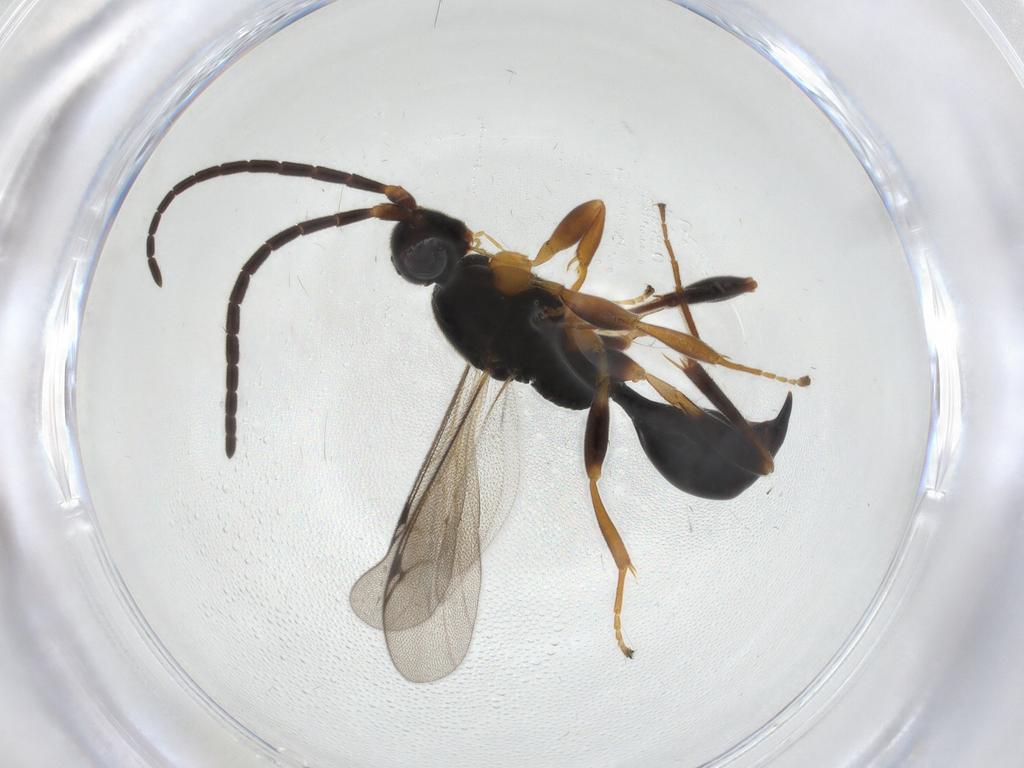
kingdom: Animalia
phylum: Arthropoda
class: Insecta
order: Hymenoptera
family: Proctotrupidae
